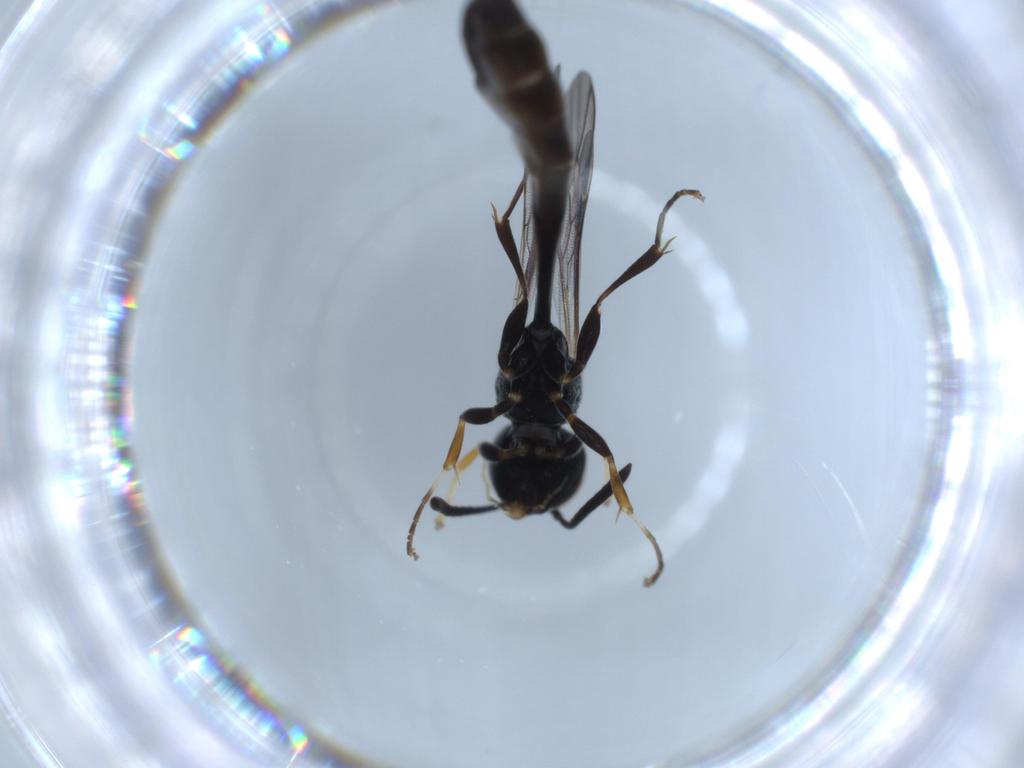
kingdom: Animalia
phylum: Arthropoda
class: Insecta
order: Hymenoptera
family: Crabronidae
